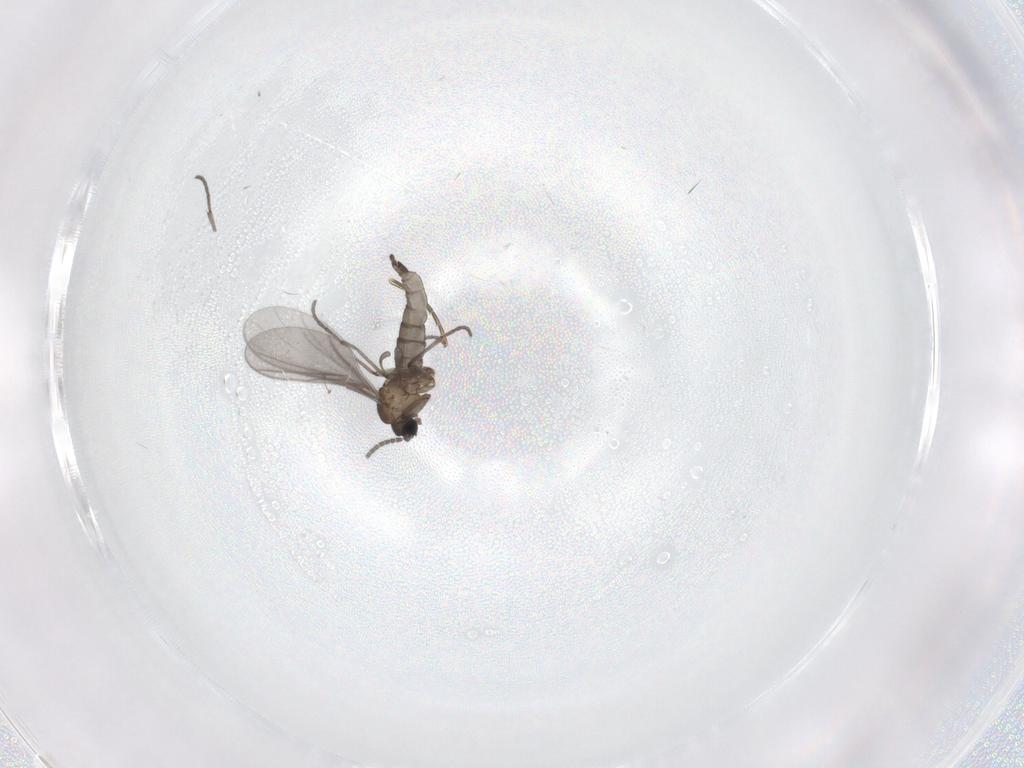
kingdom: Animalia
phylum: Arthropoda
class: Insecta
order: Diptera
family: Sciaridae
